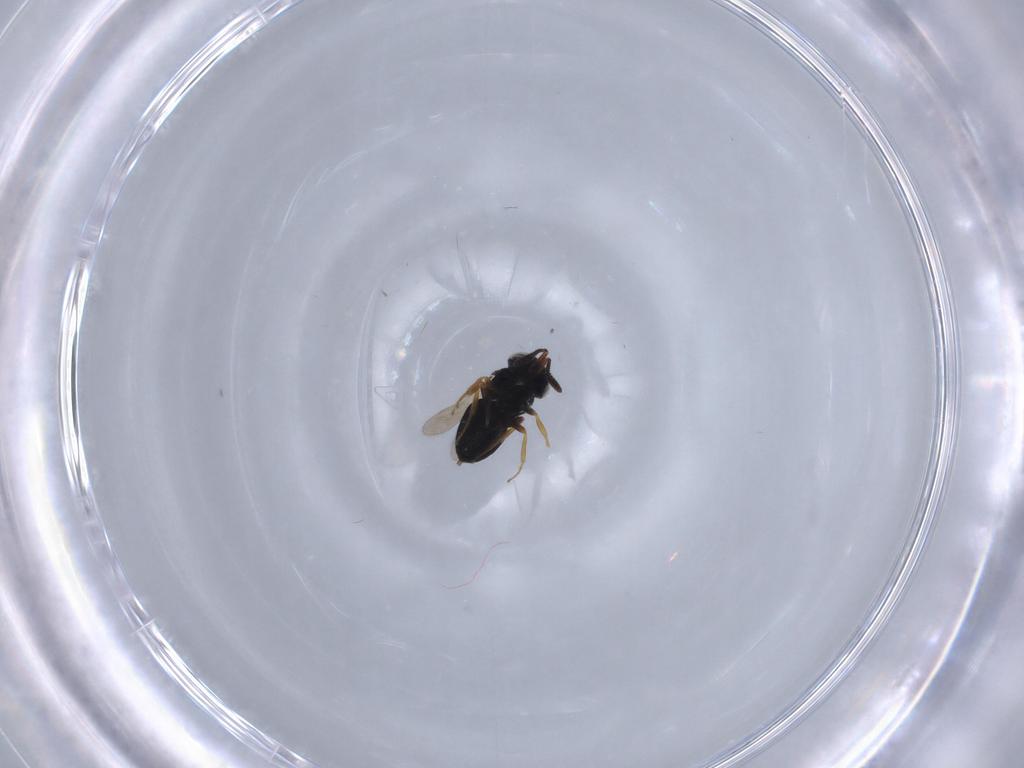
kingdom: Animalia
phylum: Arthropoda
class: Insecta
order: Hymenoptera
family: Scelionidae
